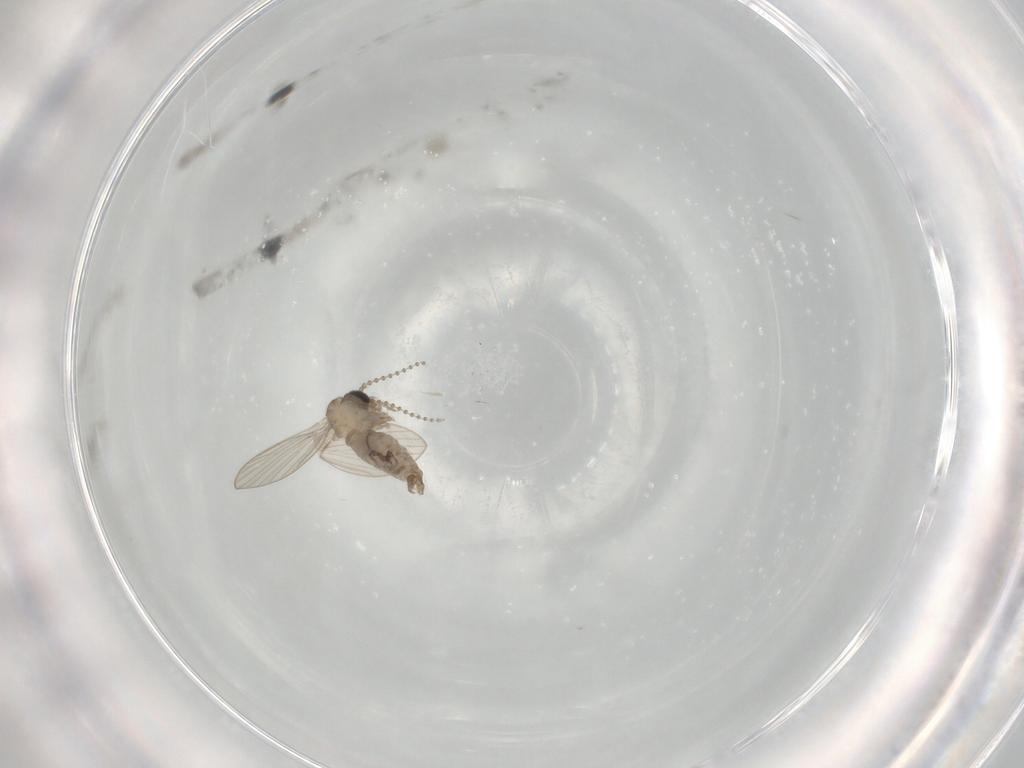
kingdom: Animalia
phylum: Arthropoda
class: Insecta
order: Diptera
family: Psychodidae
